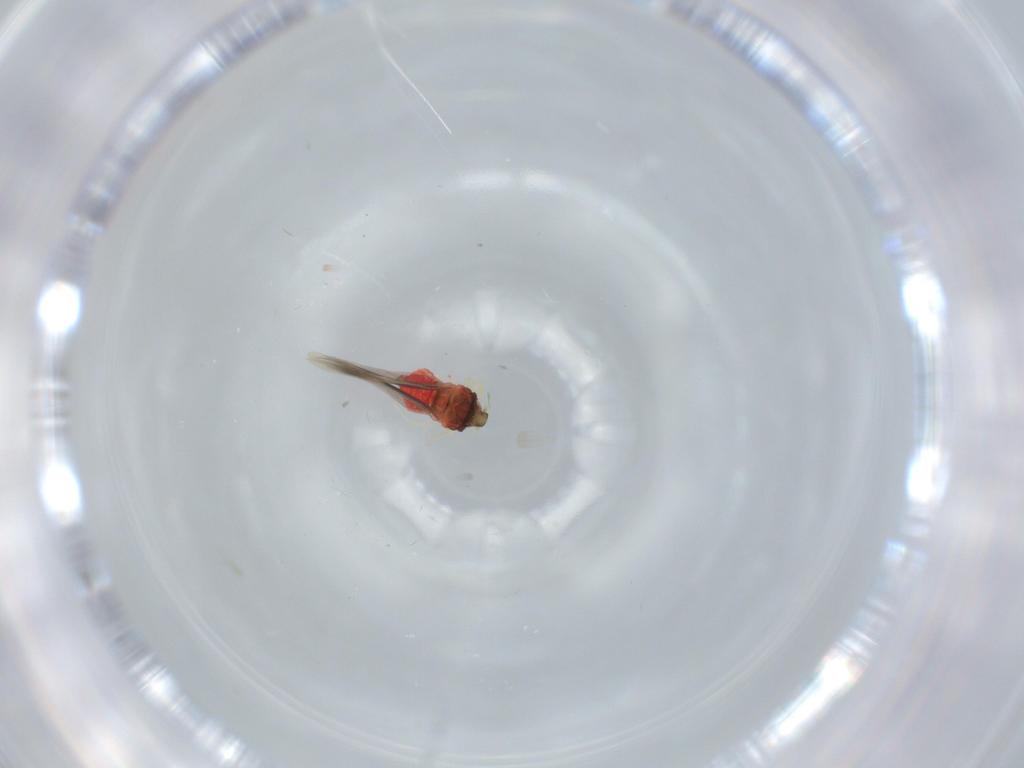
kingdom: Animalia
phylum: Arthropoda
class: Insecta
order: Hemiptera
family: Aleyrodidae
